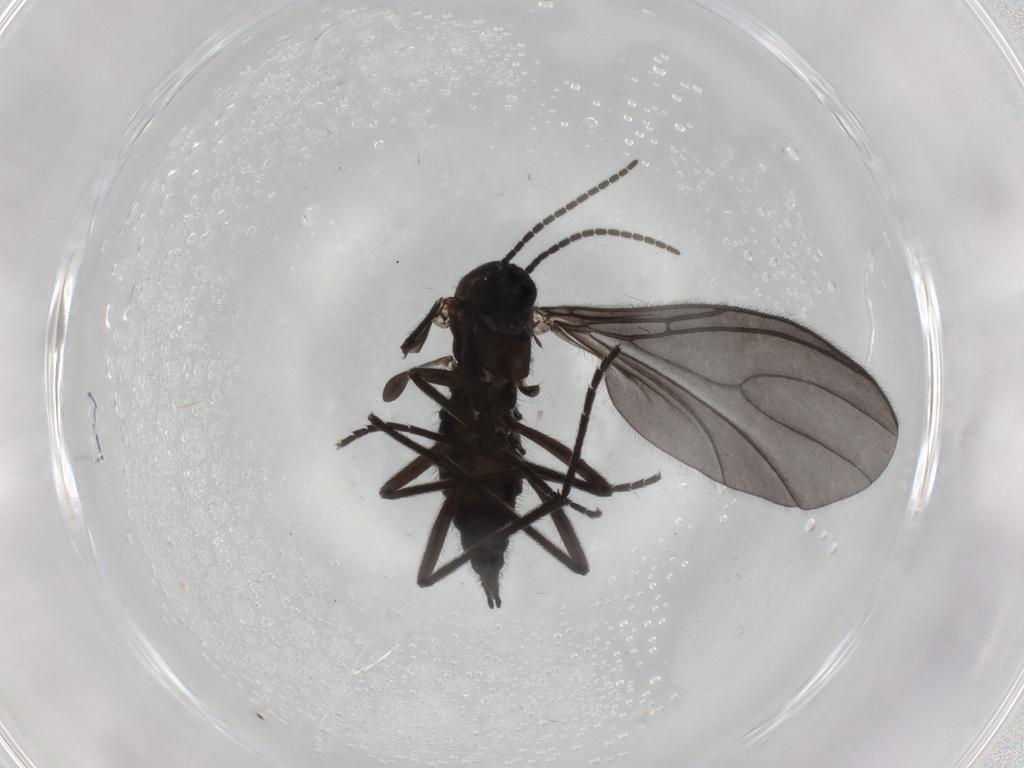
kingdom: Animalia
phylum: Arthropoda
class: Insecta
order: Diptera
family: Sciaridae
